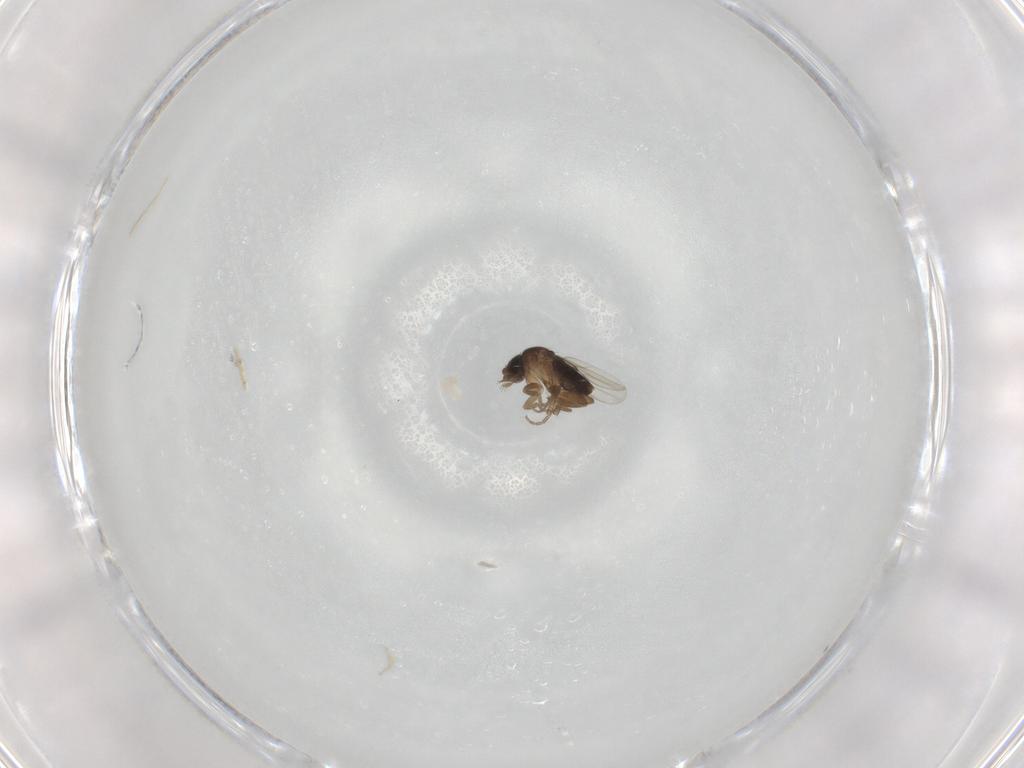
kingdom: Animalia
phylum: Arthropoda
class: Insecta
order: Diptera
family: Phoridae
